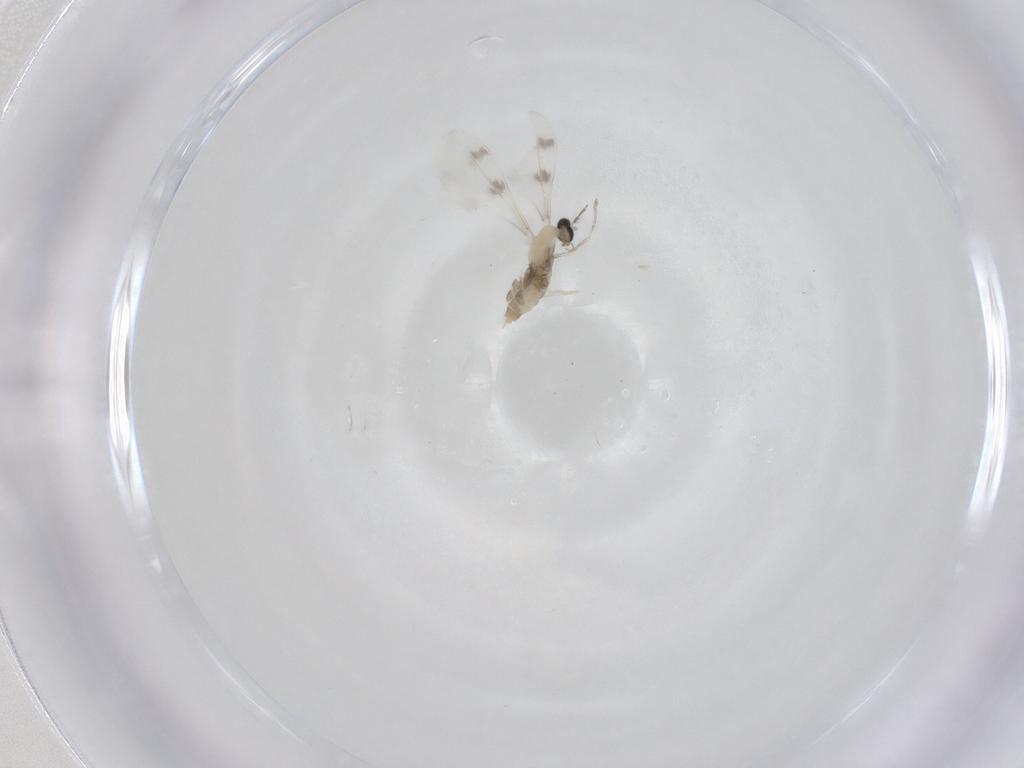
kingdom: Animalia
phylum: Arthropoda
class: Insecta
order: Diptera
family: Cecidomyiidae
